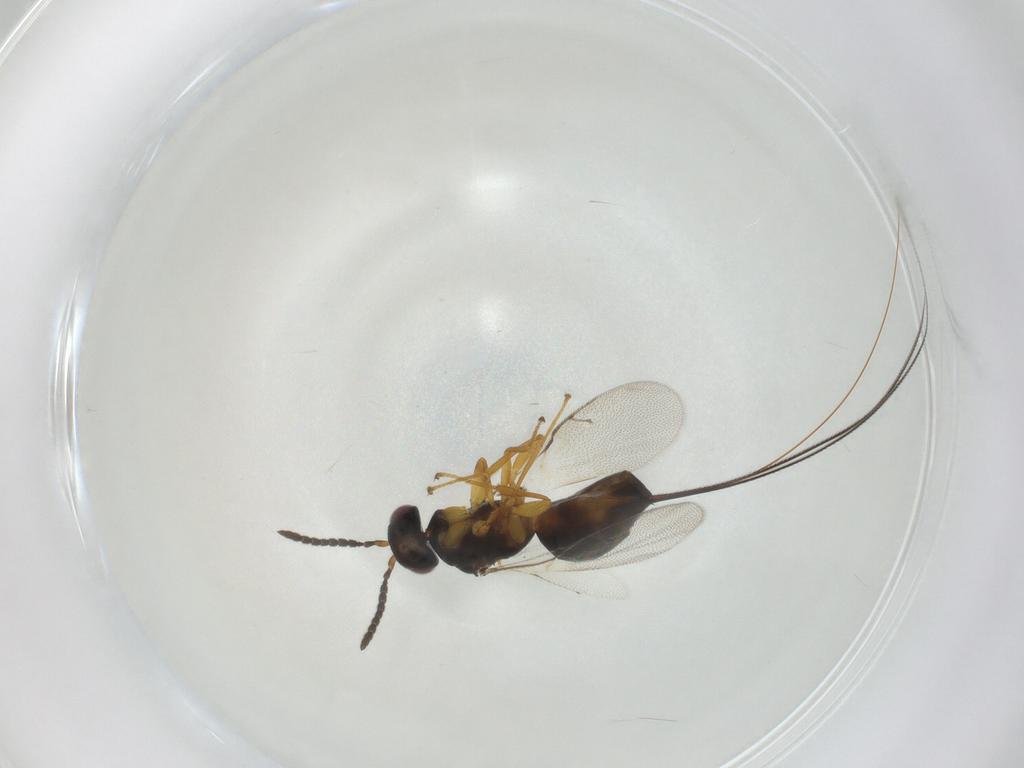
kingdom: Animalia
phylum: Arthropoda
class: Insecta
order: Hymenoptera
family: Pteromalidae
